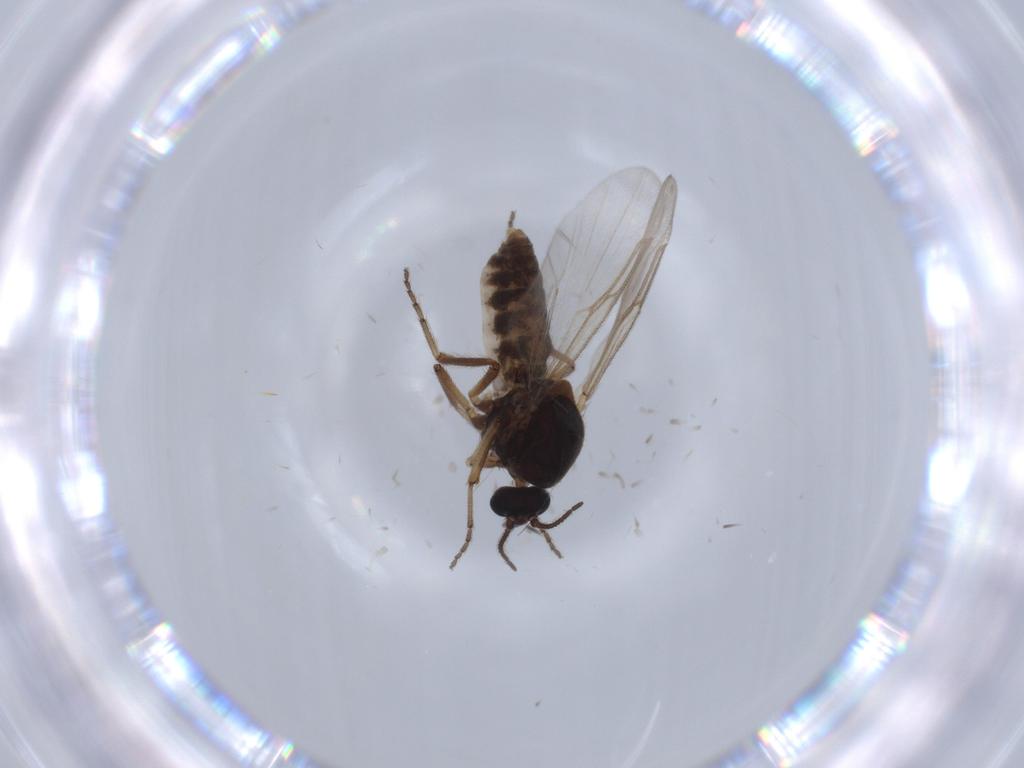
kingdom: Animalia
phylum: Arthropoda
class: Insecta
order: Diptera
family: Ceratopogonidae
